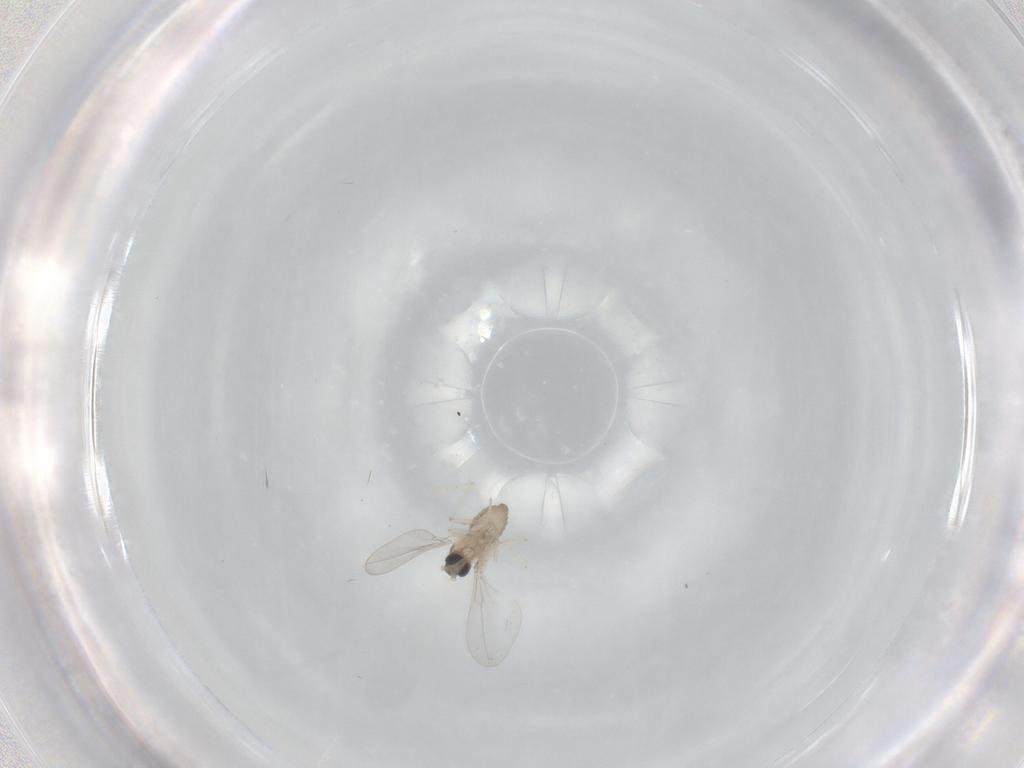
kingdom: Animalia
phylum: Arthropoda
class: Insecta
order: Diptera
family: Cecidomyiidae
